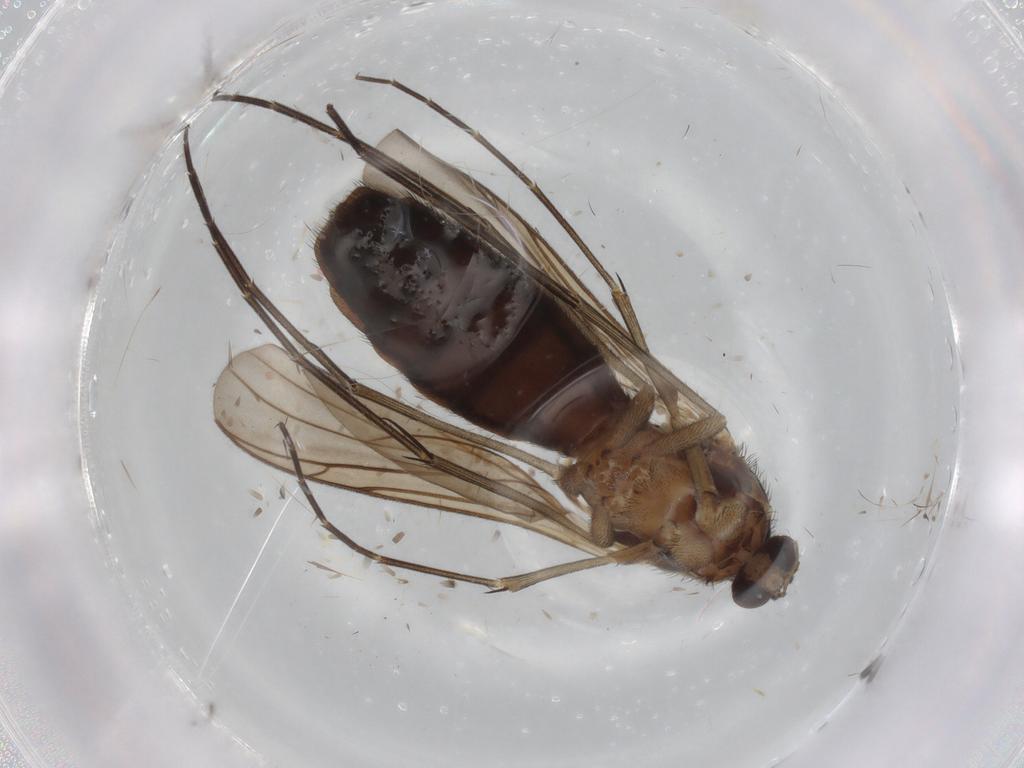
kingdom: Animalia
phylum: Arthropoda
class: Insecta
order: Diptera
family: Keroplatidae
